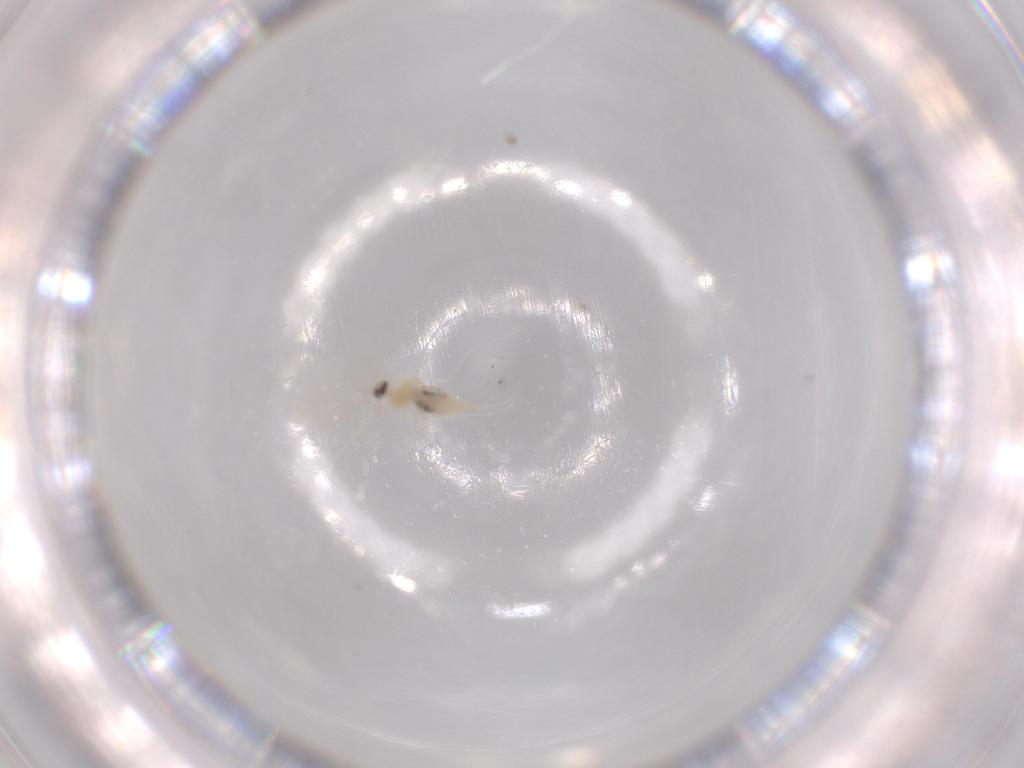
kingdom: Animalia
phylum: Arthropoda
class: Insecta
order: Diptera
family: Cecidomyiidae
